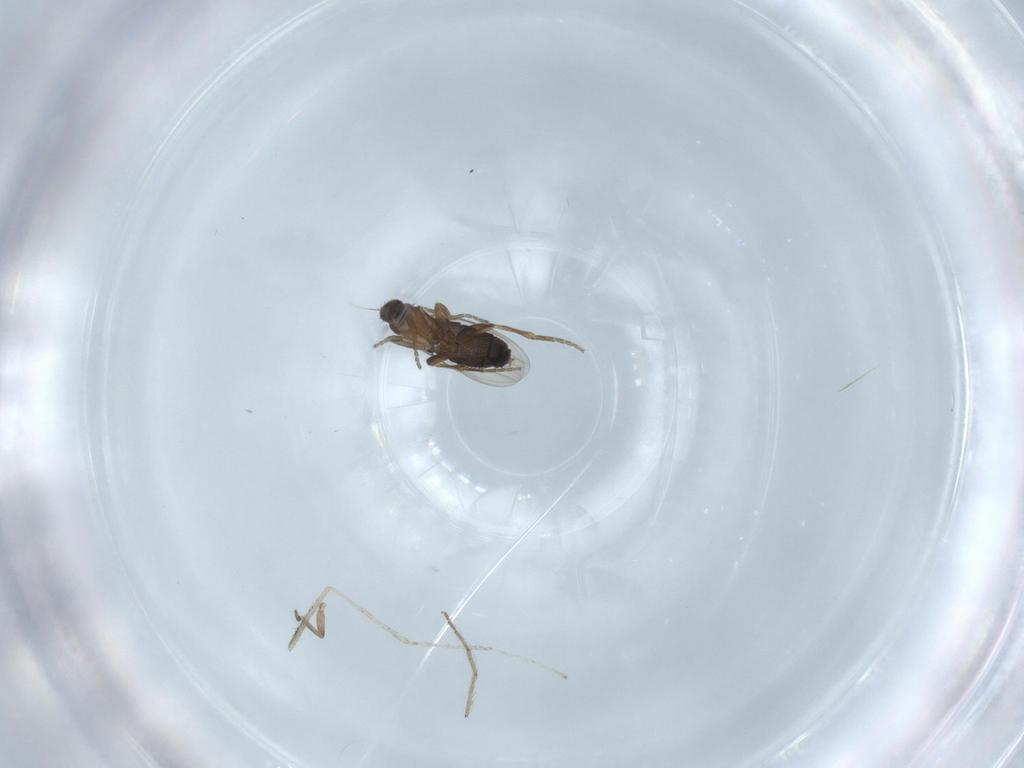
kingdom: Animalia
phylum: Arthropoda
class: Insecta
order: Diptera
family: Chironomidae
